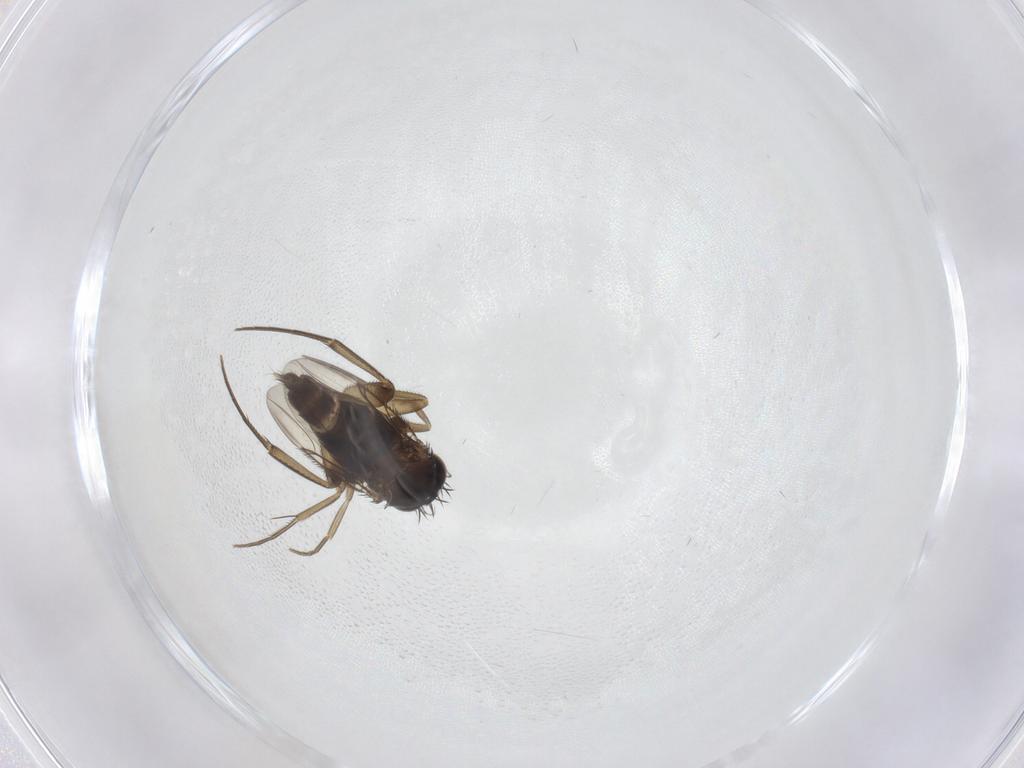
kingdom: Animalia
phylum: Arthropoda
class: Insecta
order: Diptera
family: Phoridae
